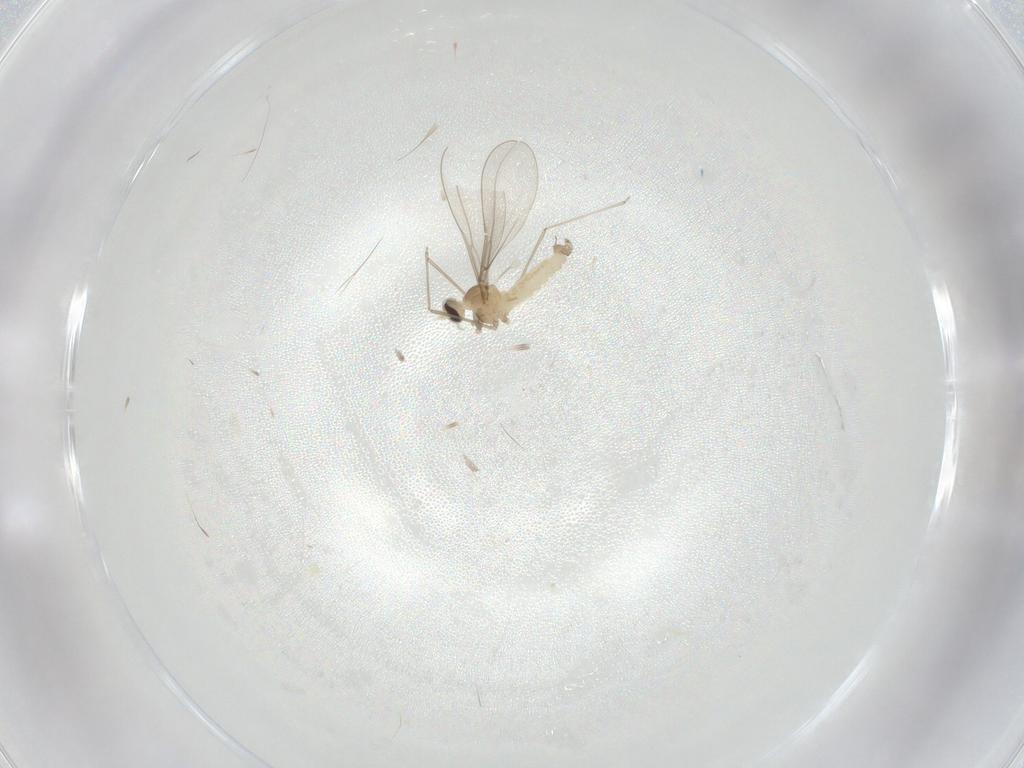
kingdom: Animalia
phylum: Arthropoda
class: Insecta
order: Diptera
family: Cecidomyiidae
